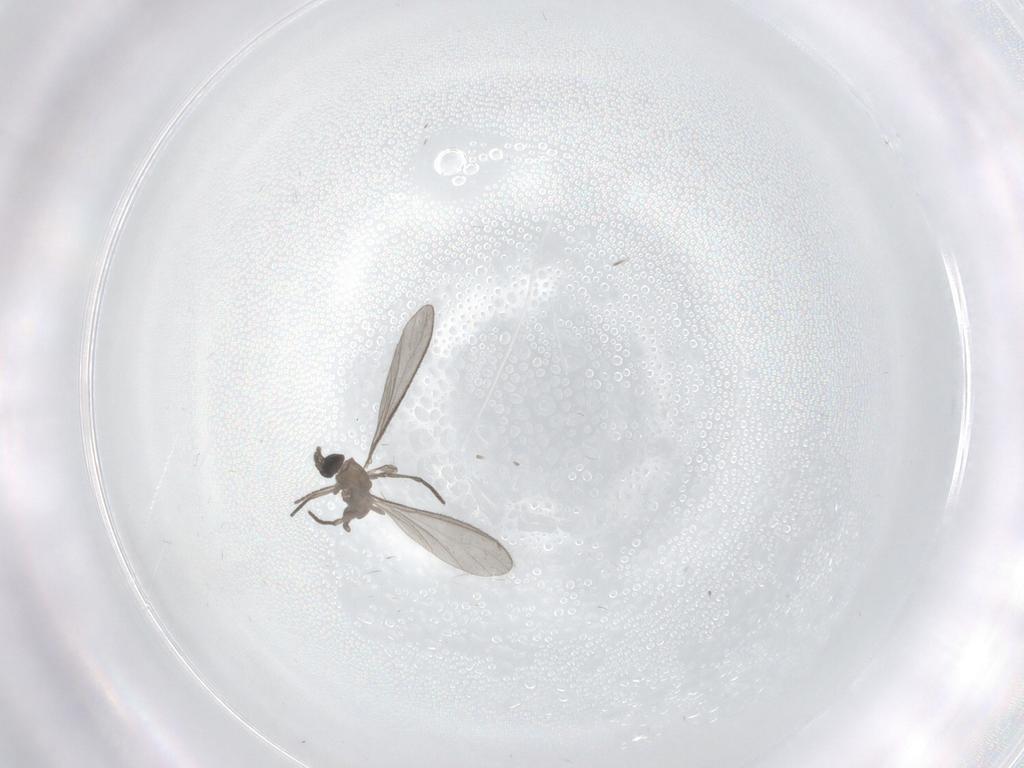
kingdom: Animalia
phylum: Arthropoda
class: Insecta
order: Diptera
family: Sciaridae
